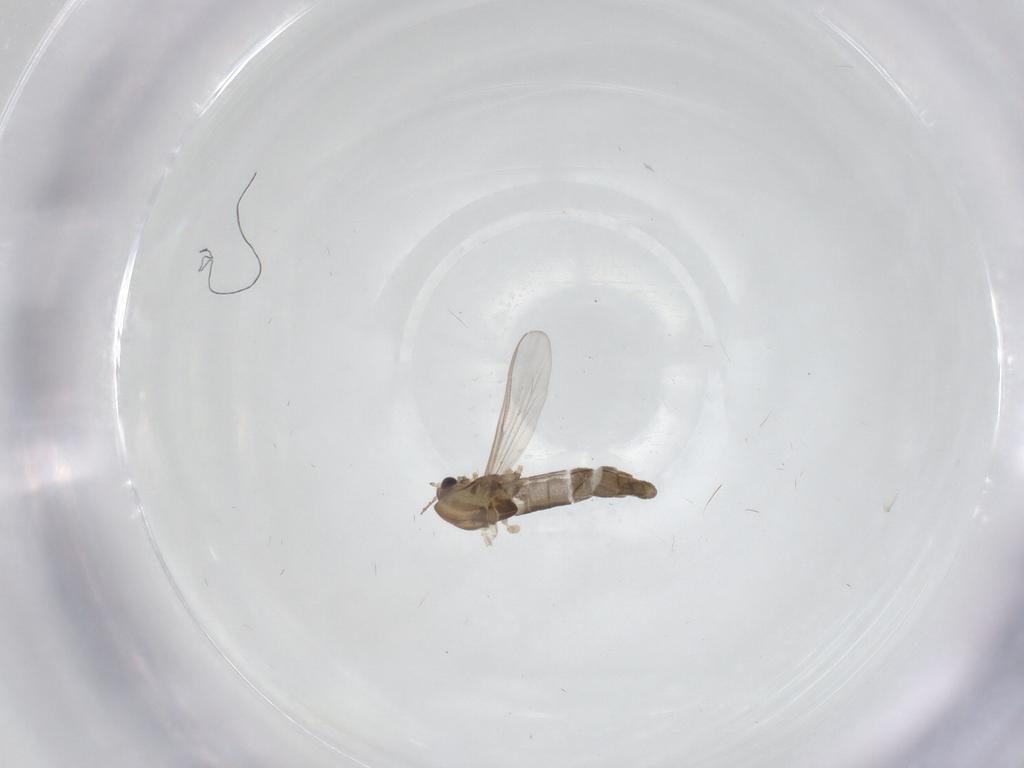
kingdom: Animalia
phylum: Arthropoda
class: Insecta
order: Diptera
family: Chironomidae
